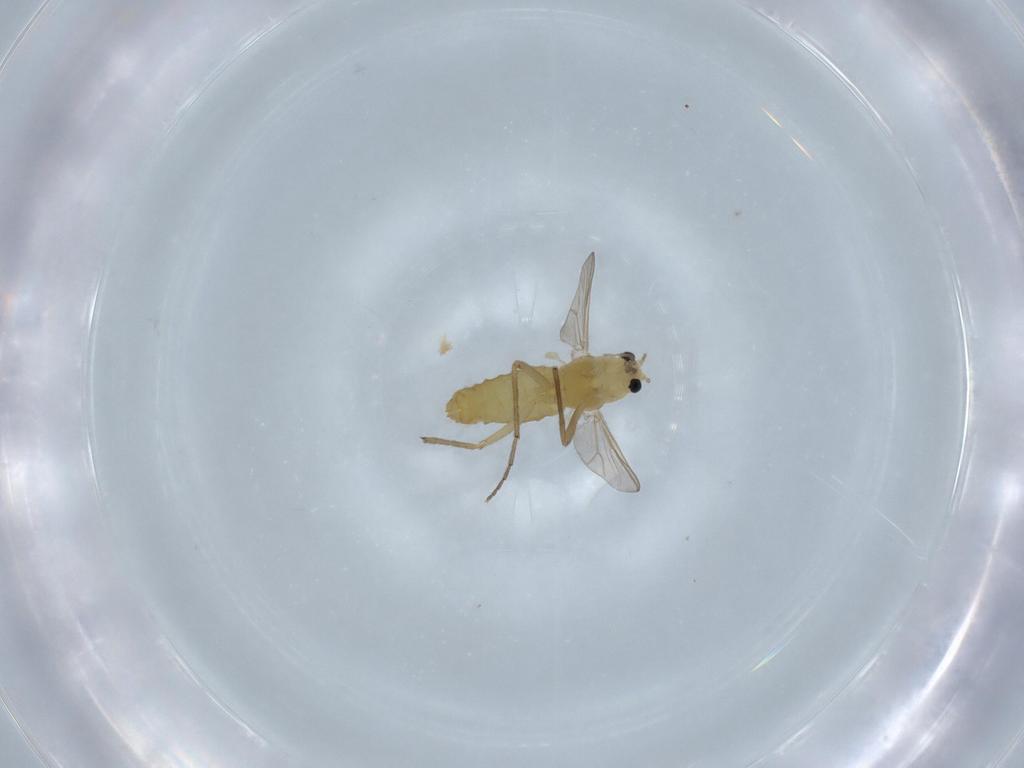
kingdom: Animalia
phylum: Arthropoda
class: Insecta
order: Diptera
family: Chironomidae
